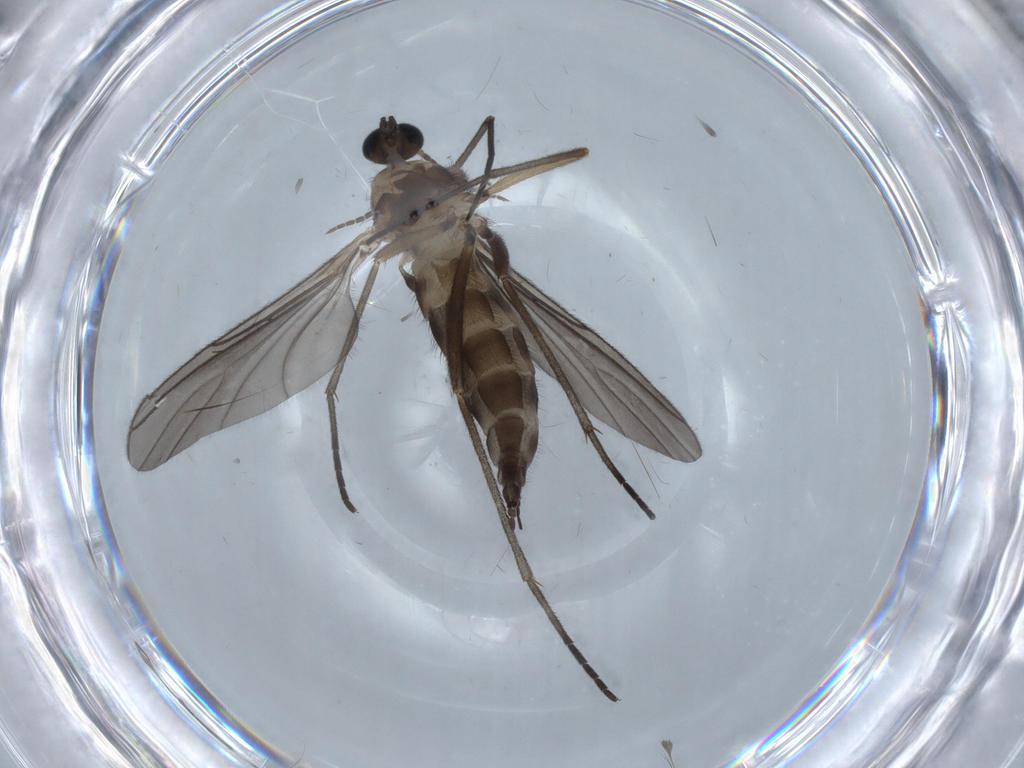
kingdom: Animalia
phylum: Arthropoda
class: Insecta
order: Diptera
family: Sciaridae
